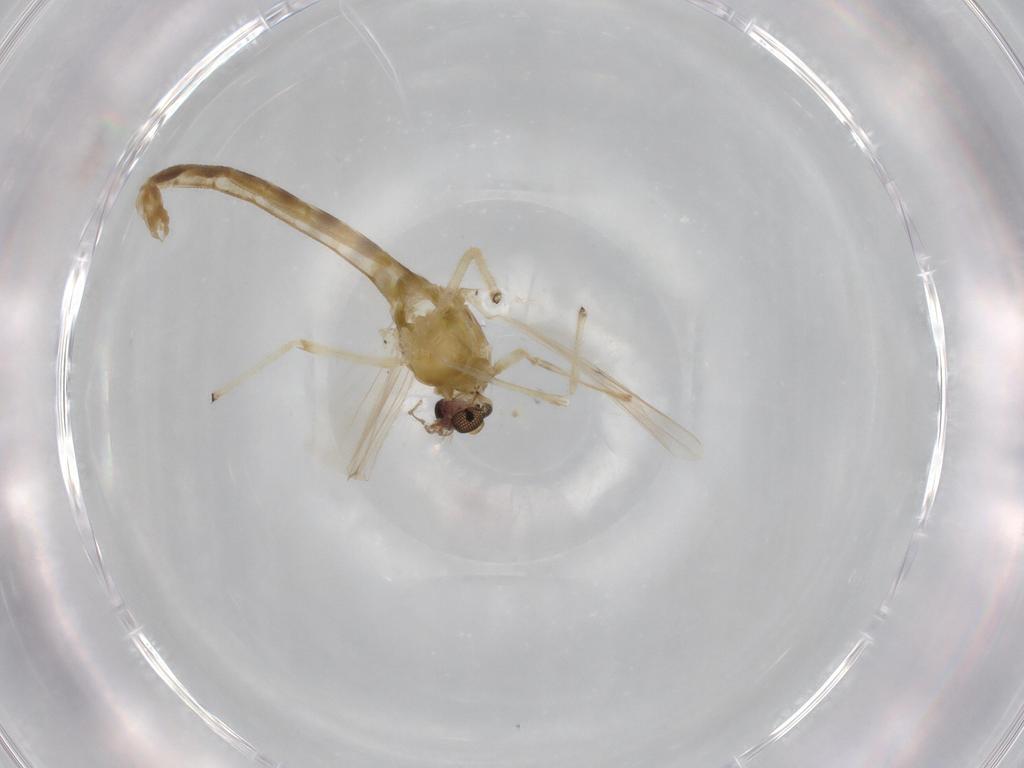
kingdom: Animalia
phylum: Arthropoda
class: Insecta
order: Diptera
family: Chironomidae
